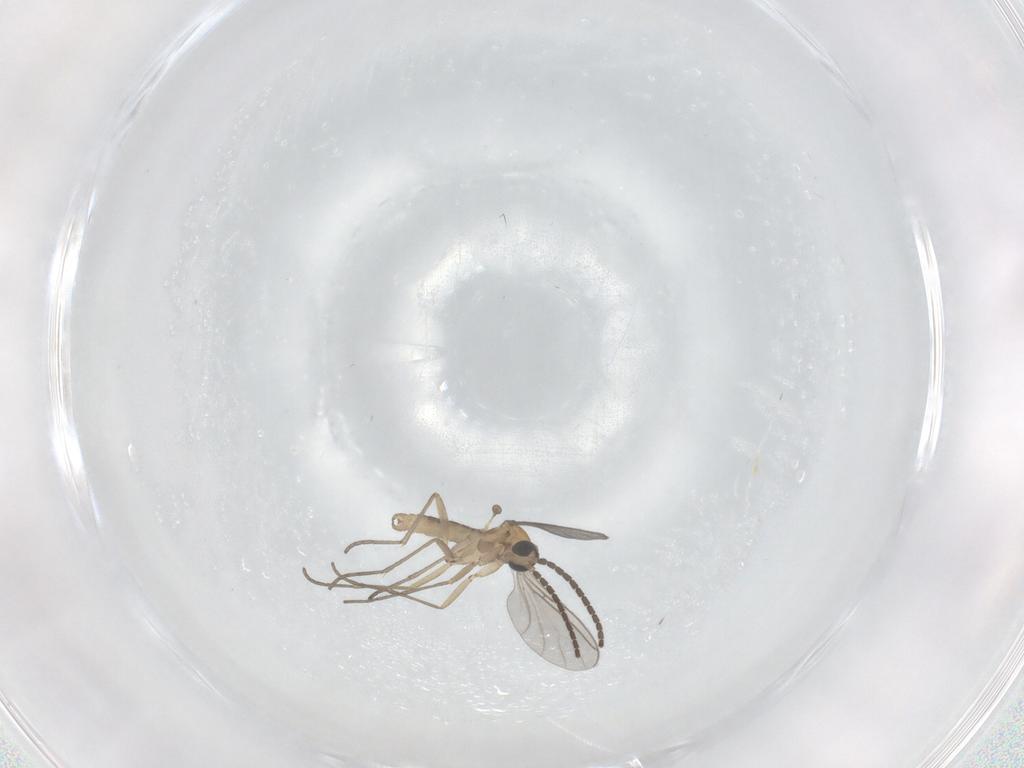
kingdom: Animalia
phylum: Arthropoda
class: Insecta
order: Diptera
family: Sciaridae
